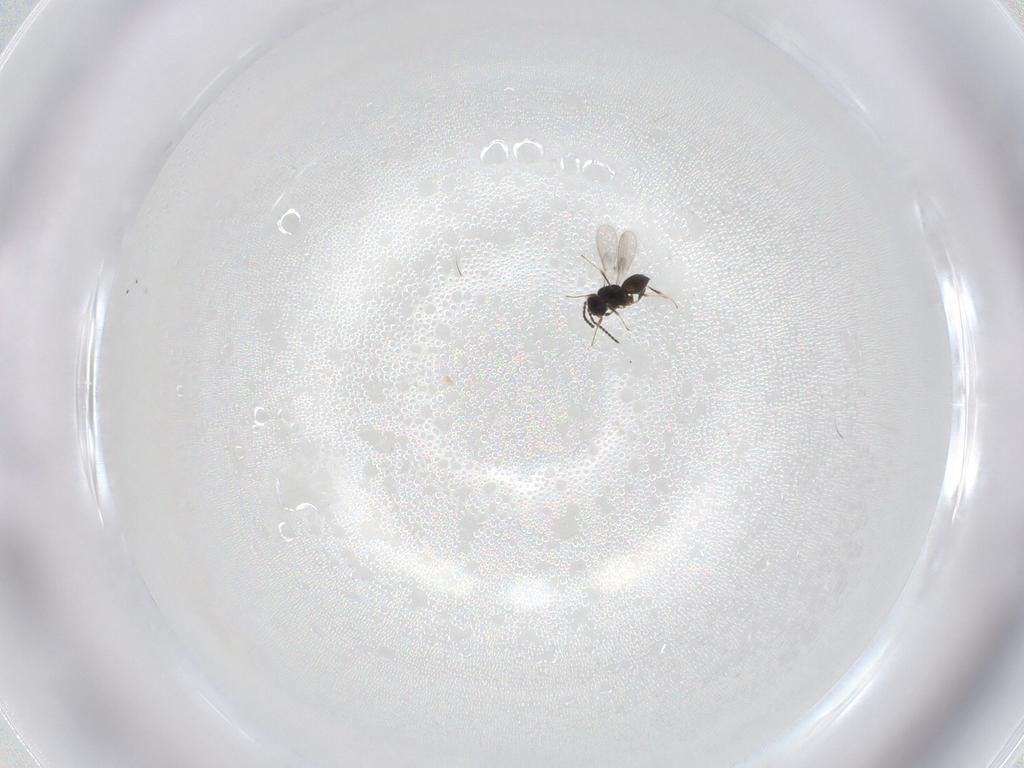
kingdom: Animalia
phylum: Arthropoda
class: Insecta
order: Hymenoptera
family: Scelionidae
